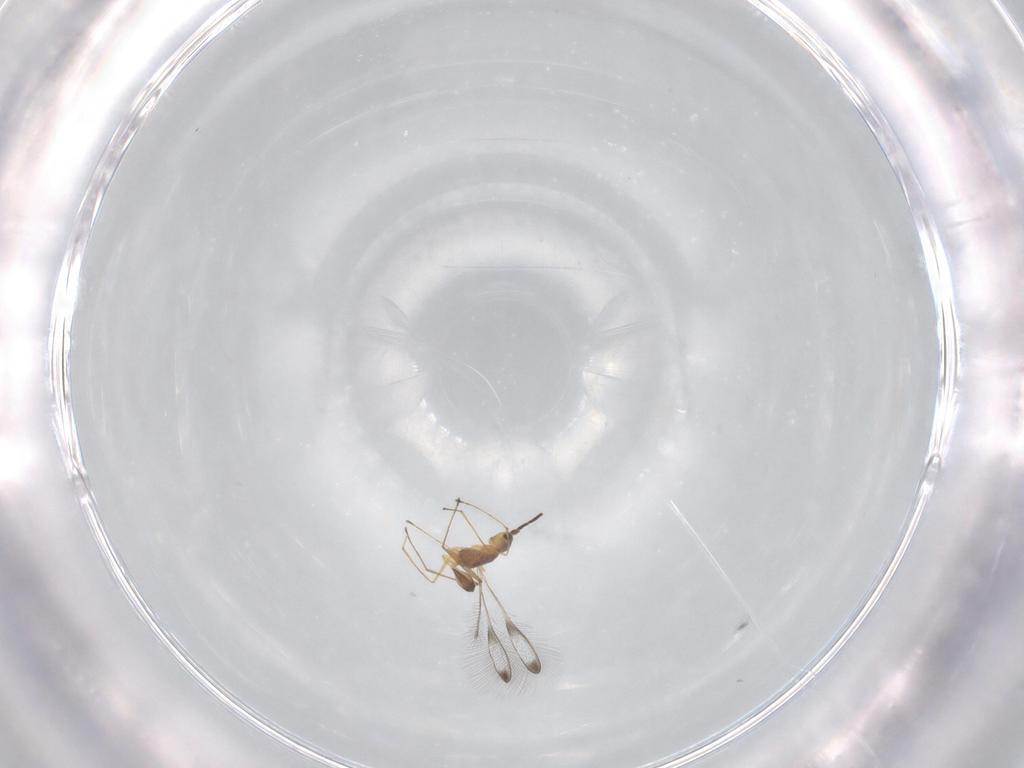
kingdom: Animalia
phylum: Arthropoda
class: Insecta
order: Hymenoptera
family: Mymaridae
